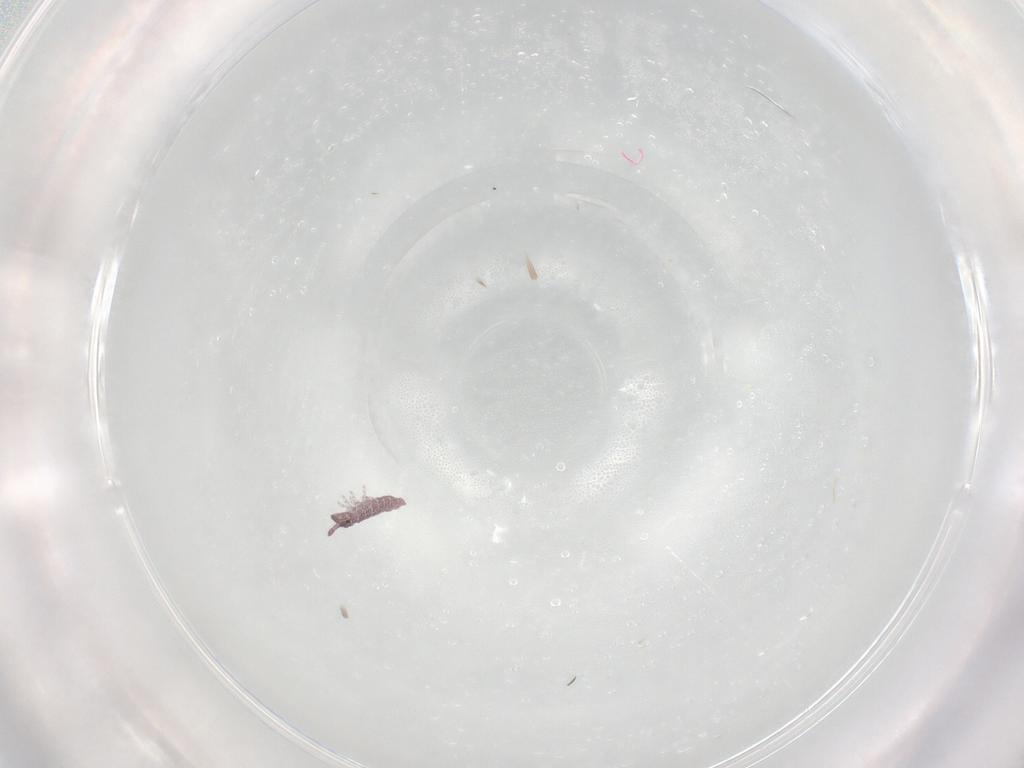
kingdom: Animalia
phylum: Arthropoda
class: Collembola
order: Poduromorpha
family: Hypogastruridae
